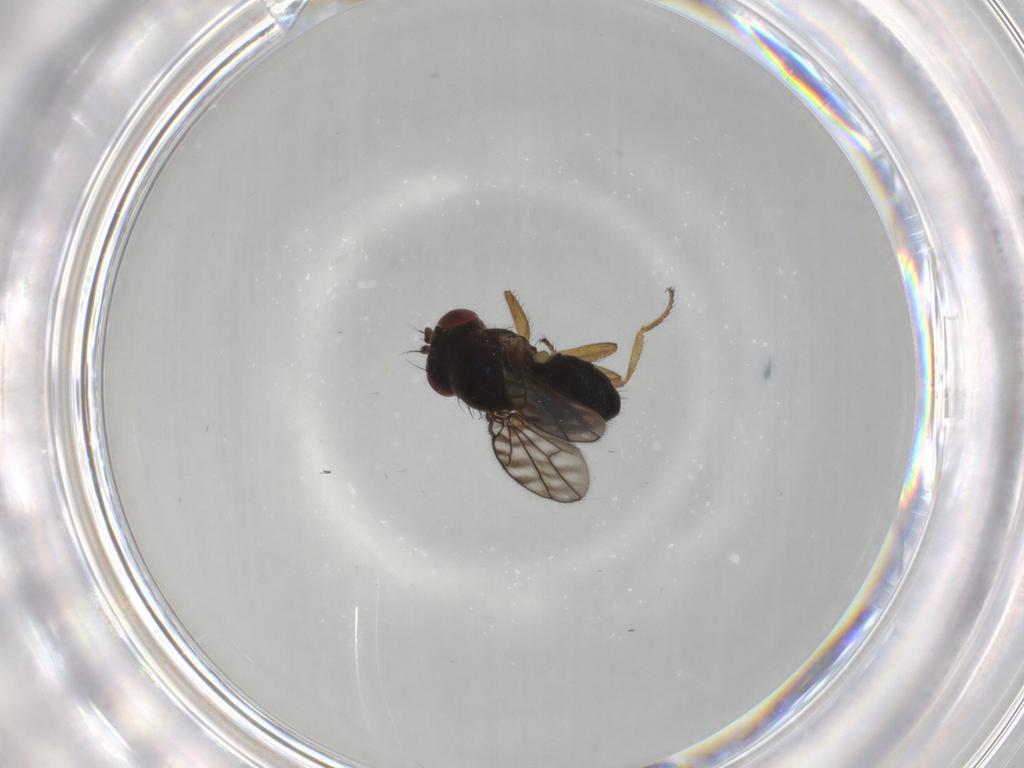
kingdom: Animalia
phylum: Arthropoda
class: Insecta
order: Diptera
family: Ephydridae
